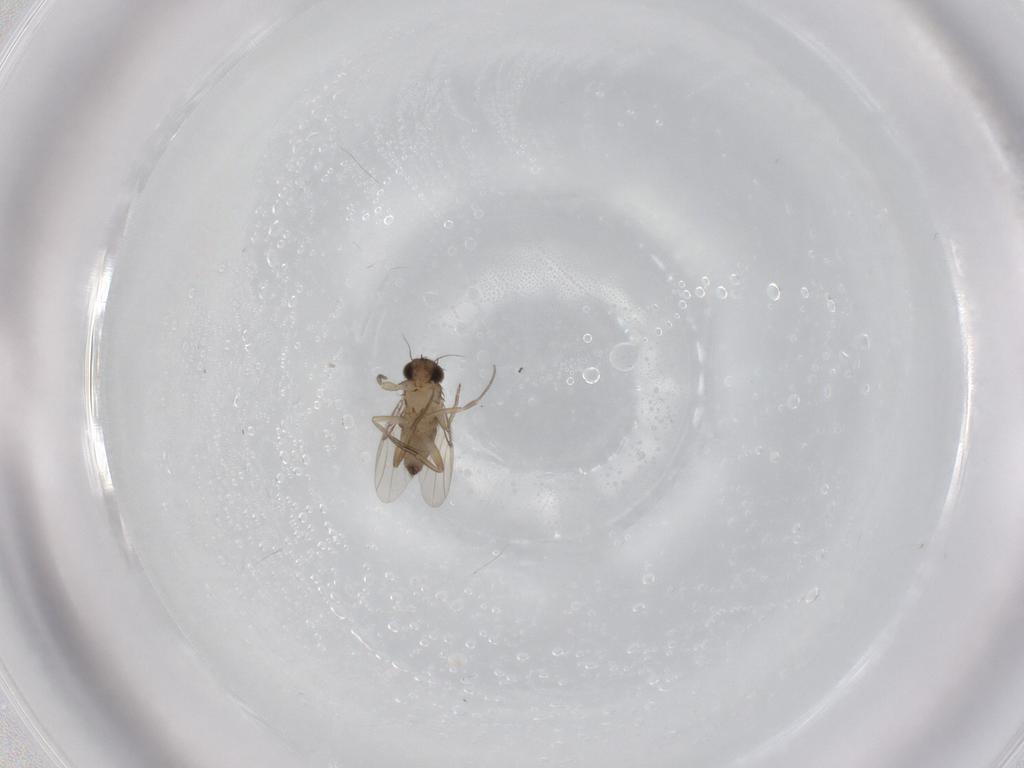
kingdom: Animalia
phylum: Arthropoda
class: Insecta
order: Diptera
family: Phoridae
